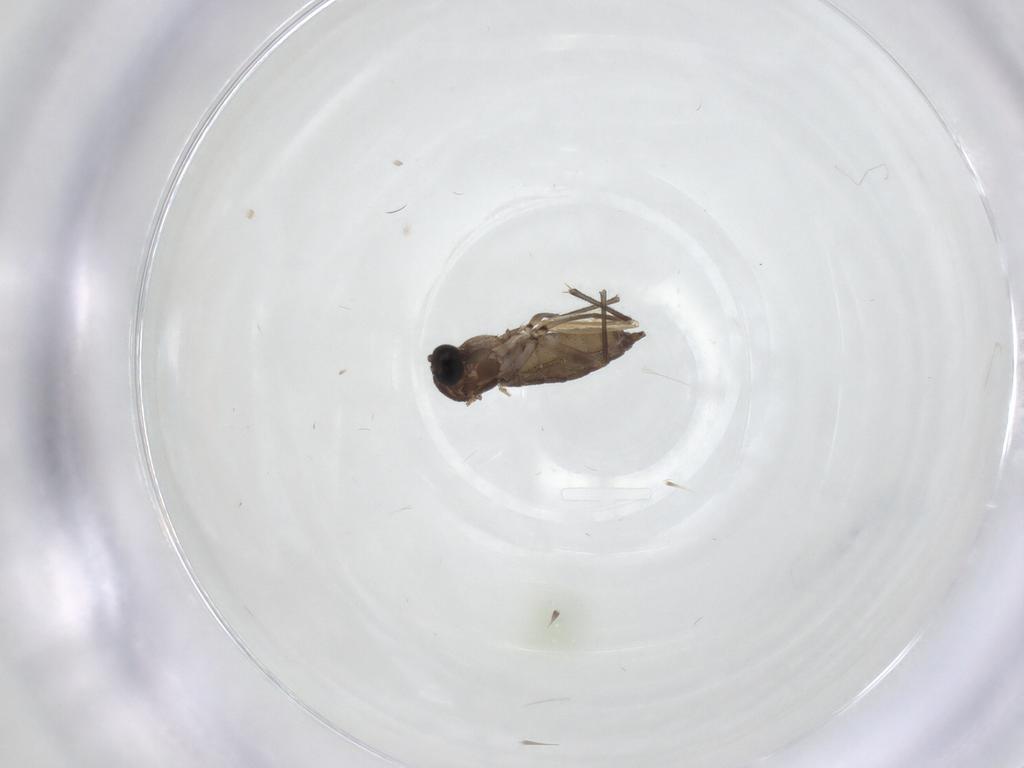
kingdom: Animalia
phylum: Arthropoda
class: Insecta
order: Diptera
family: Sciaridae
